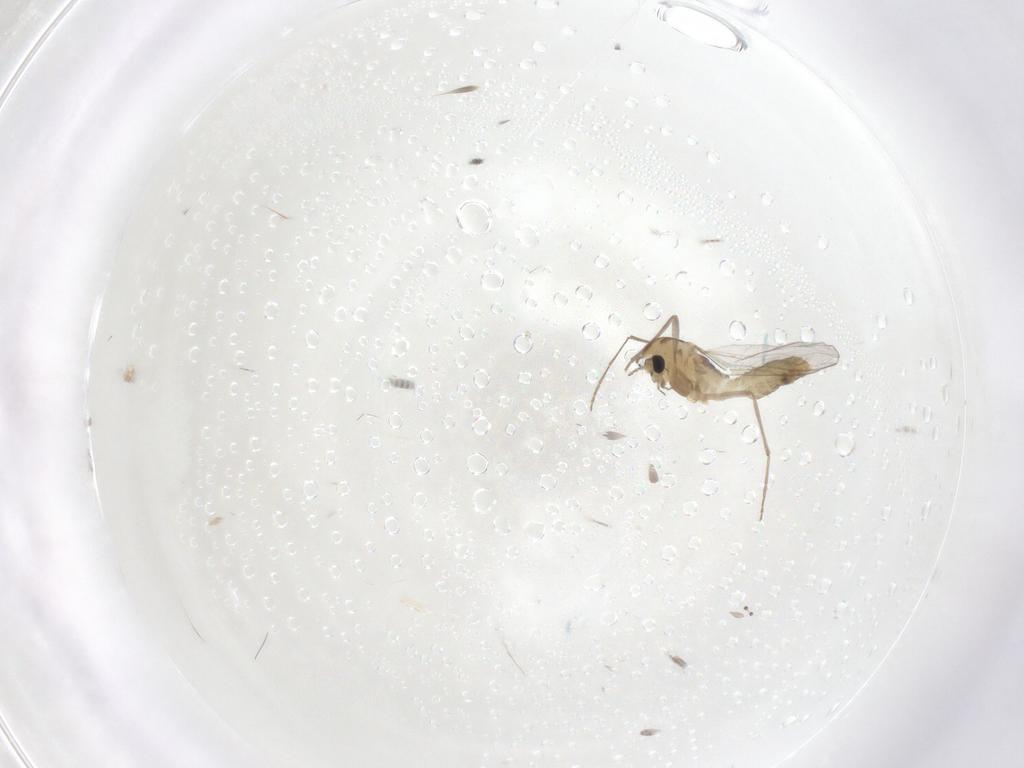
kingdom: Animalia
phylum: Arthropoda
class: Insecta
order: Diptera
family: Chironomidae
